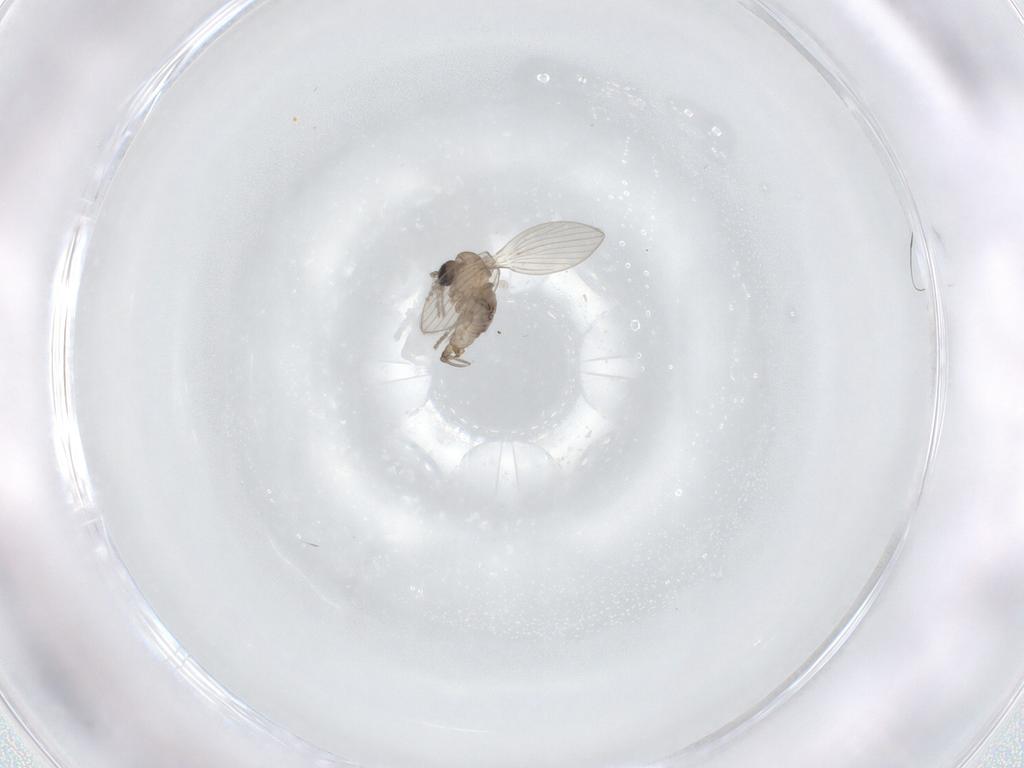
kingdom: Animalia
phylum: Arthropoda
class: Insecta
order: Diptera
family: Psychodidae
